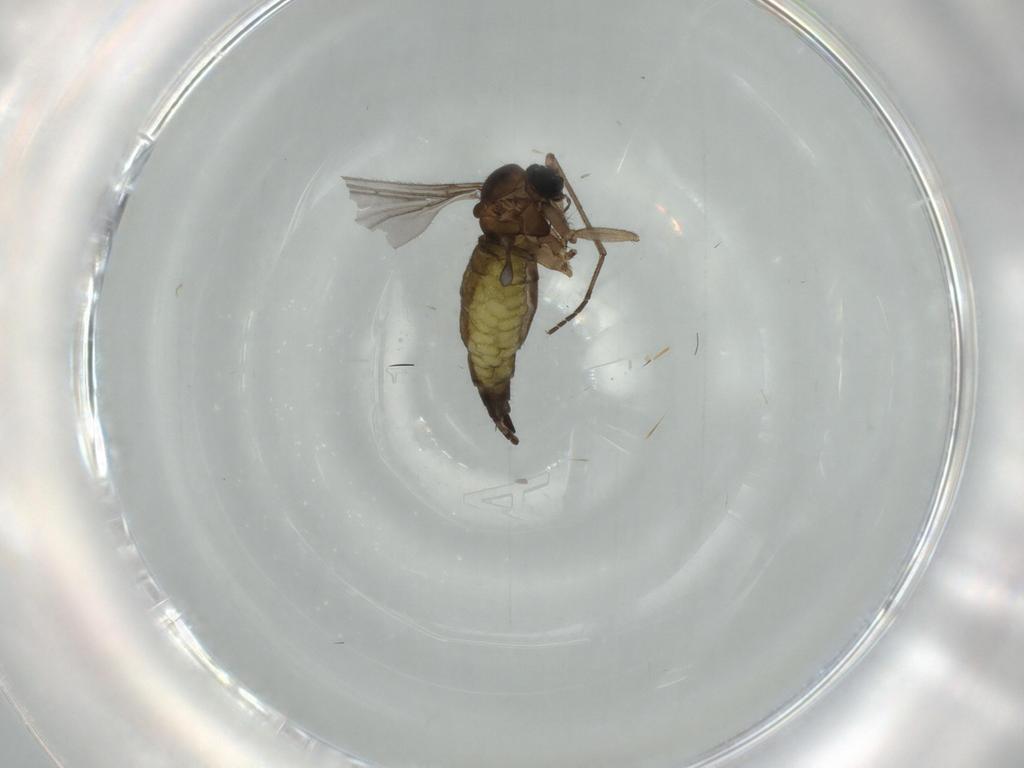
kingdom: Animalia
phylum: Arthropoda
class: Insecta
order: Diptera
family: Sciaridae
